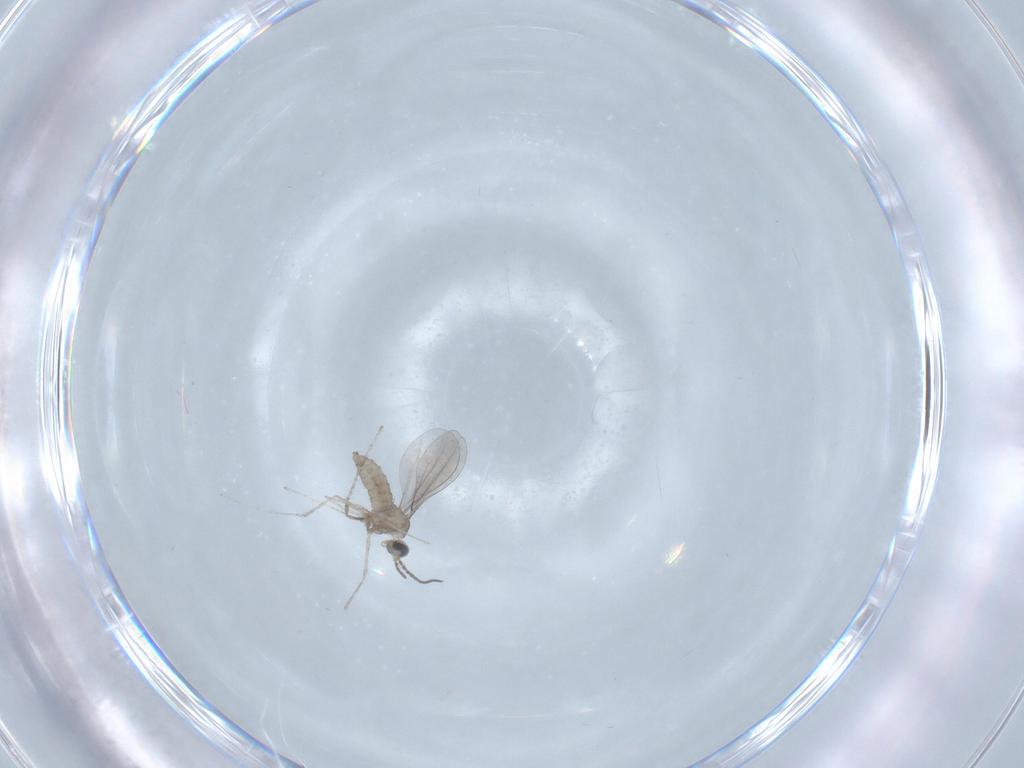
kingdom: Animalia
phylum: Arthropoda
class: Insecta
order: Diptera
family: Cecidomyiidae
